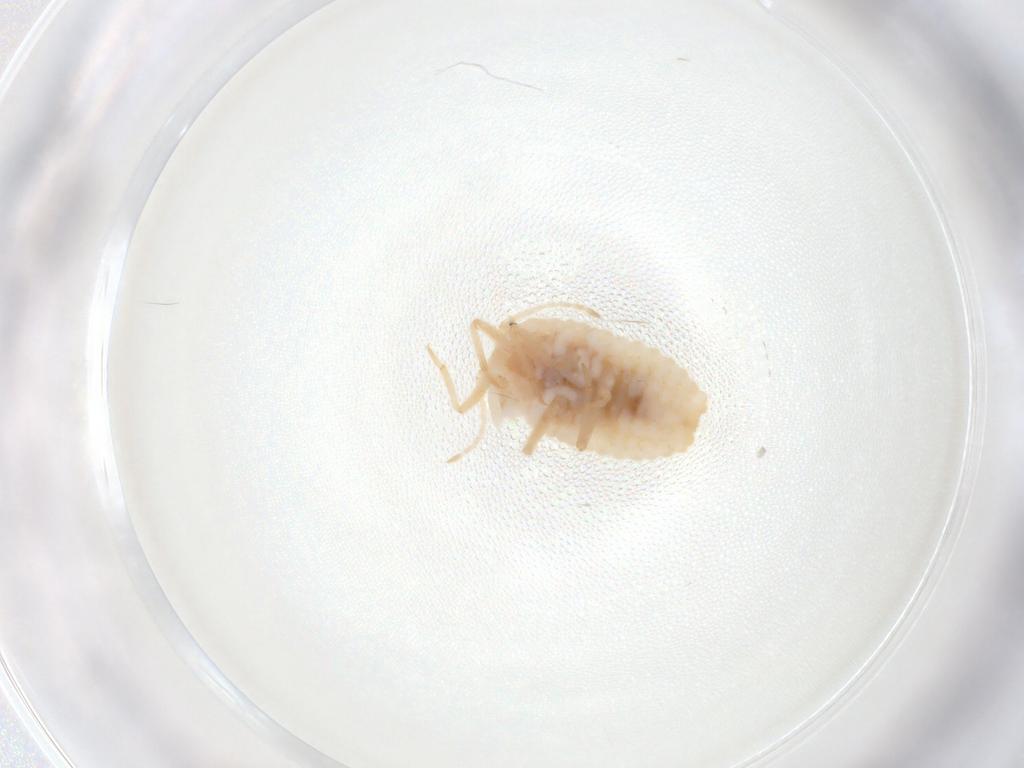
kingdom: Animalia
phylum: Arthropoda
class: Insecta
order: Hemiptera
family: Coccoidea_incertae_sedis
